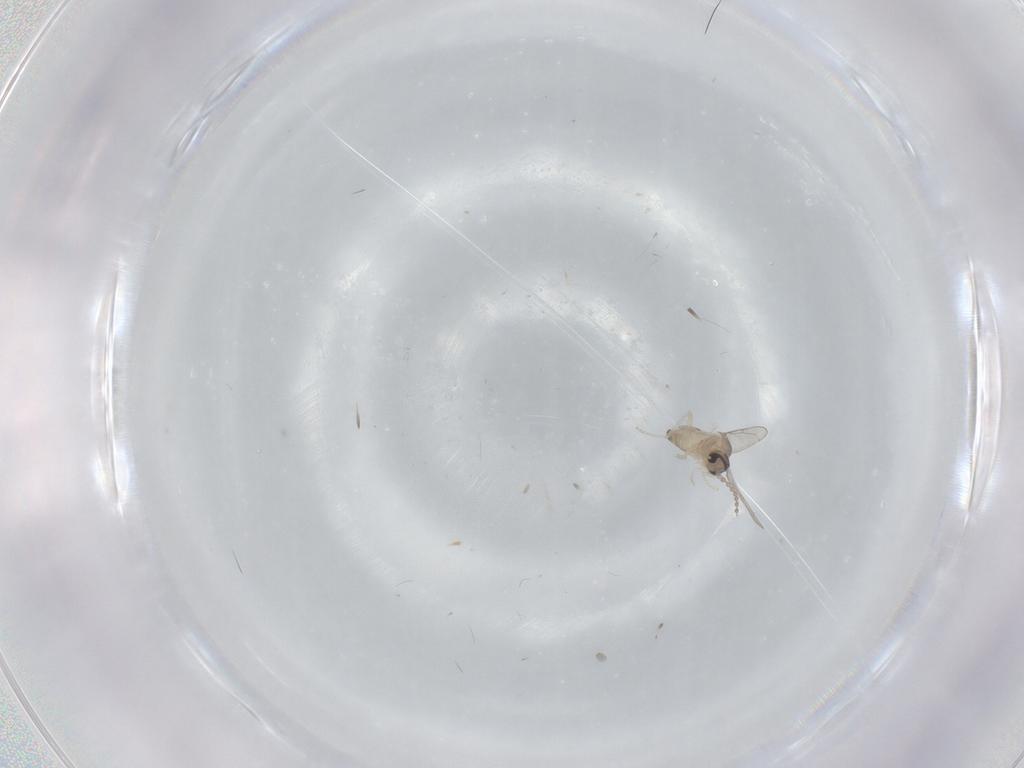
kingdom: Animalia
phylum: Arthropoda
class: Insecta
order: Diptera
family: Cecidomyiidae
